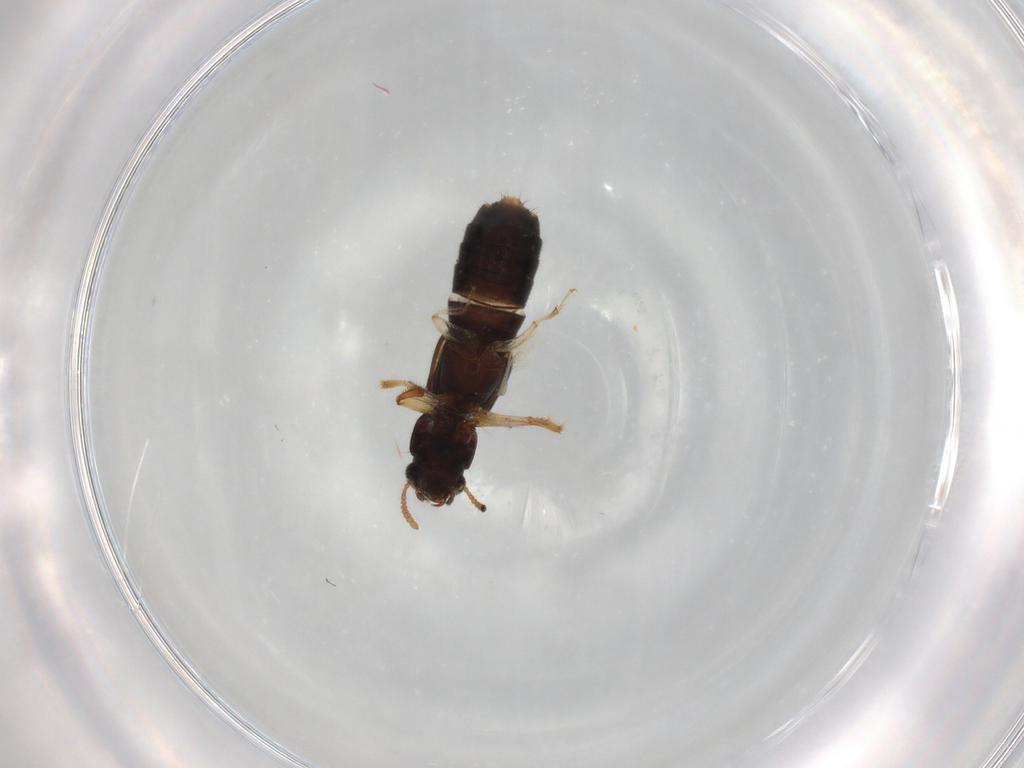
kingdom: Animalia
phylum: Arthropoda
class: Insecta
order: Coleoptera
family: Staphylinidae
